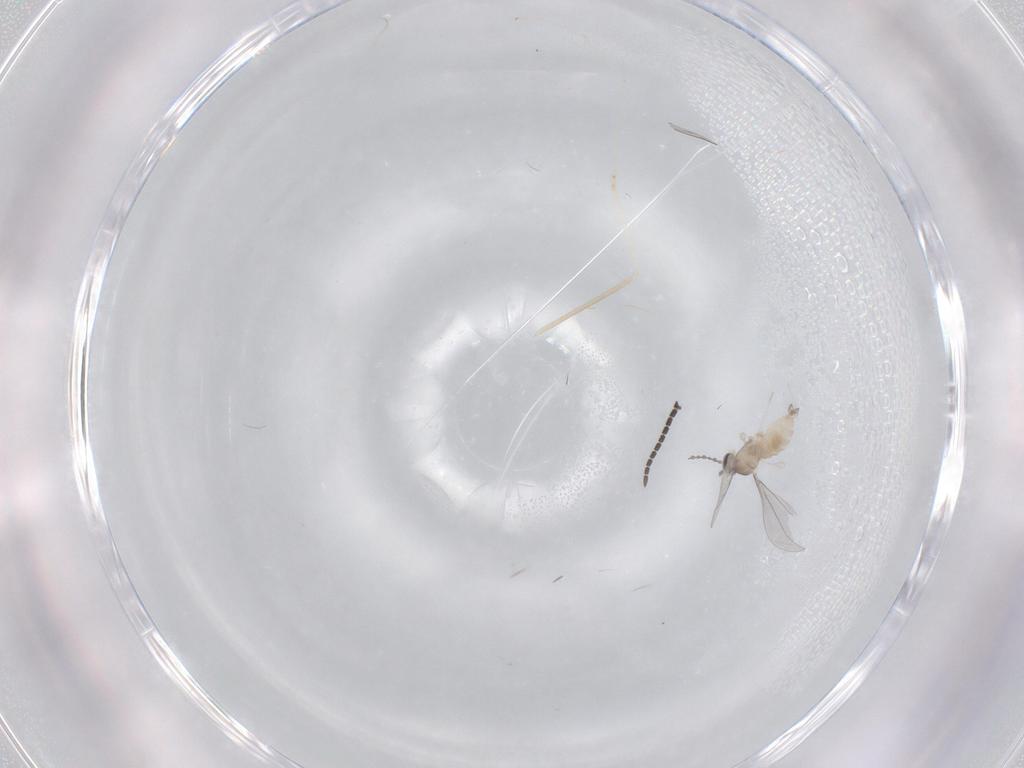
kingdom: Animalia
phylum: Arthropoda
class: Insecta
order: Diptera
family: Sciaridae
